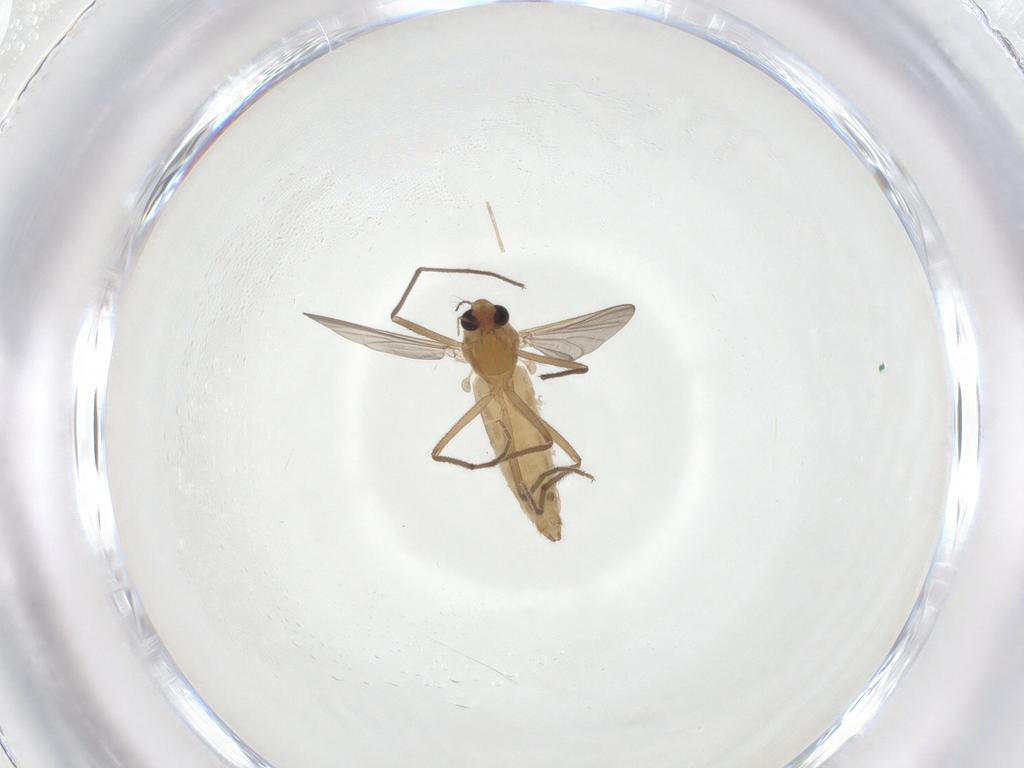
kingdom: Animalia
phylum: Arthropoda
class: Insecta
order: Diptera
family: Chironomidae
